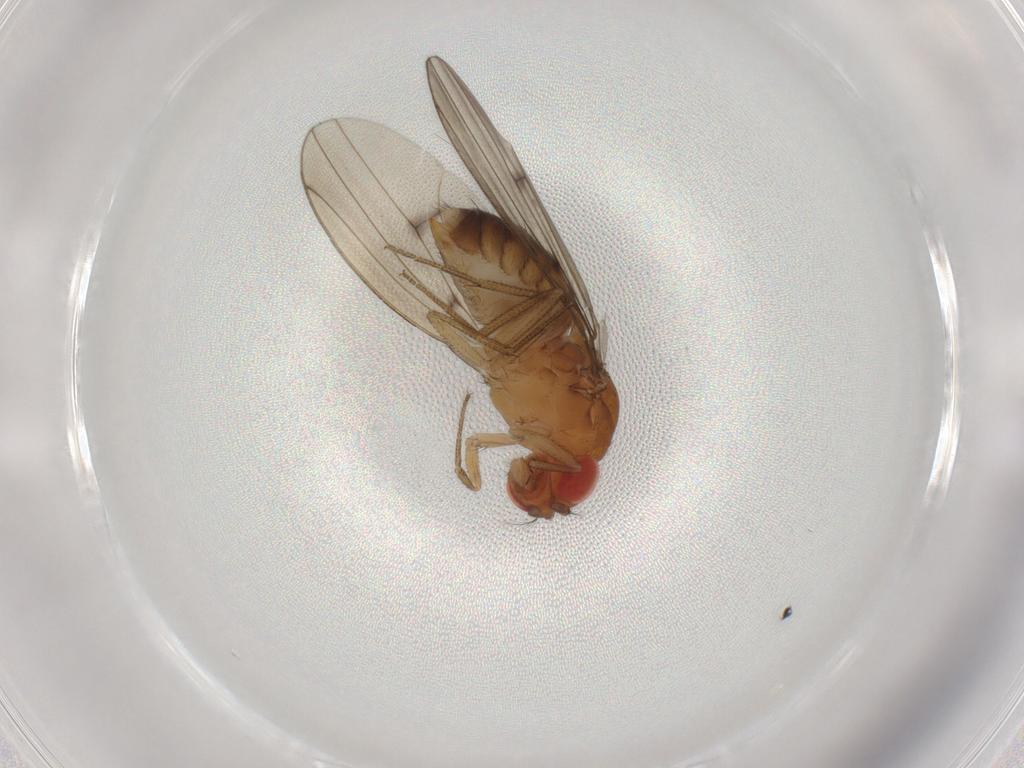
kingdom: Animalia
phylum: Arthropoda
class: Insecta
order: Diptera
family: Drosophilidae
